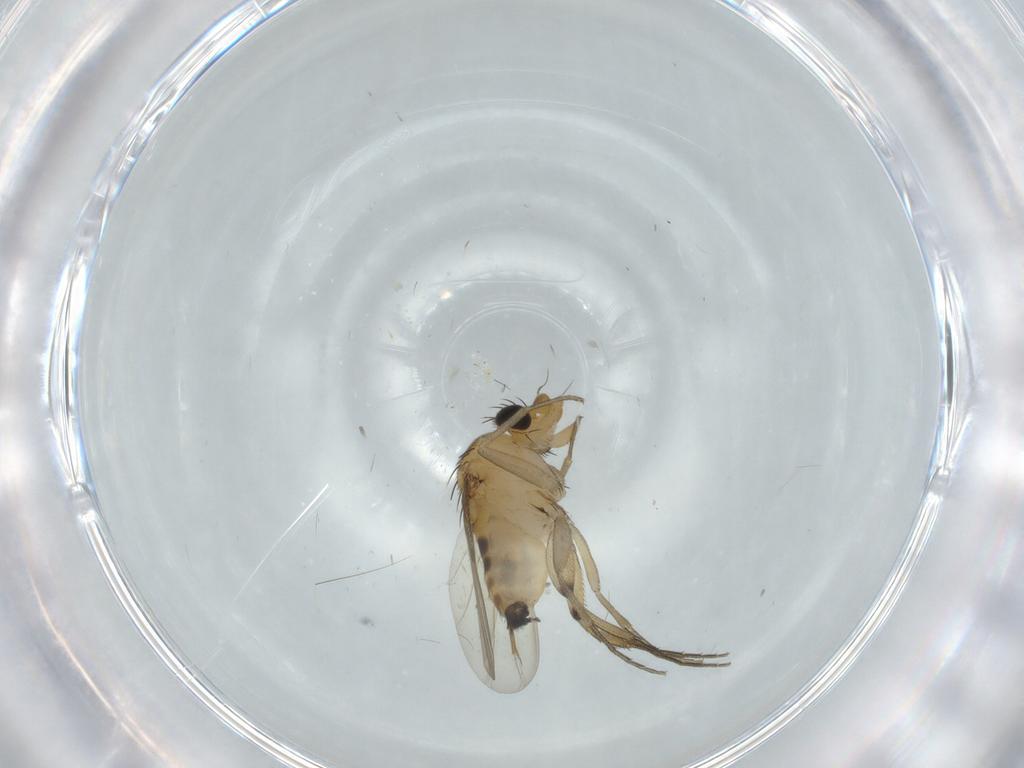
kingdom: Animalia
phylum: Arthropoda
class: Insecta
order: Diptera
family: Phoridae
